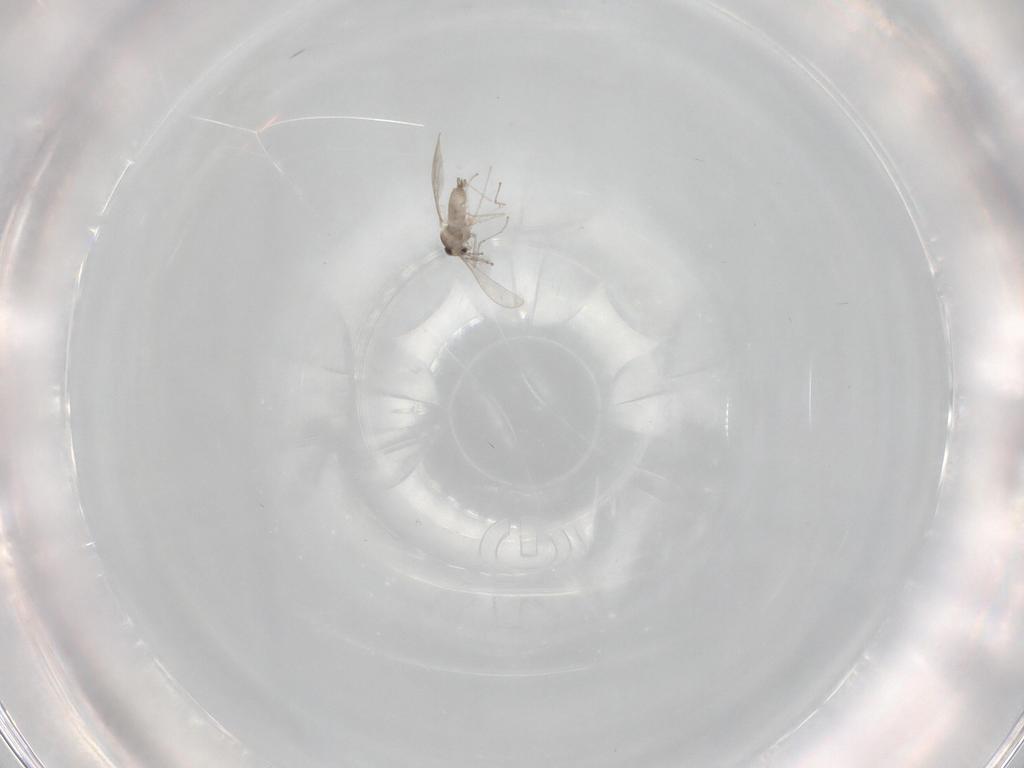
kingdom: Animalia
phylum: Arthropoda
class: Insecta
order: Diptera
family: Cecidomyiidae
